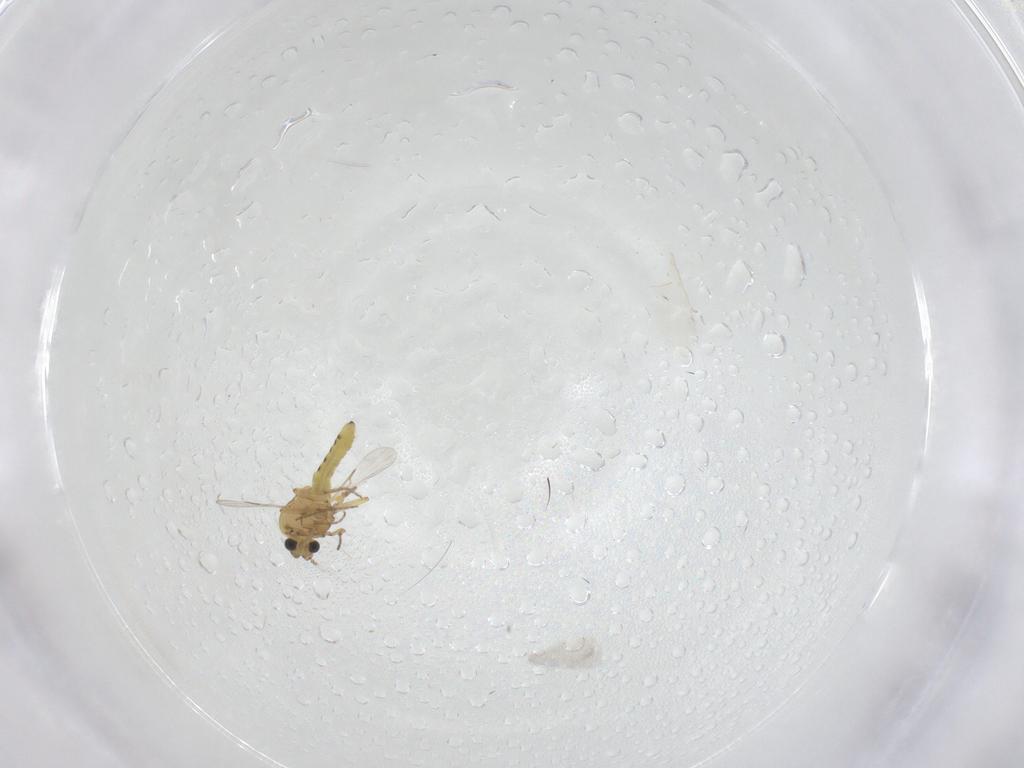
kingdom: Animalia
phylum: Arthropoda
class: Insecta
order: Diptera
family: Ceratopogonidae
